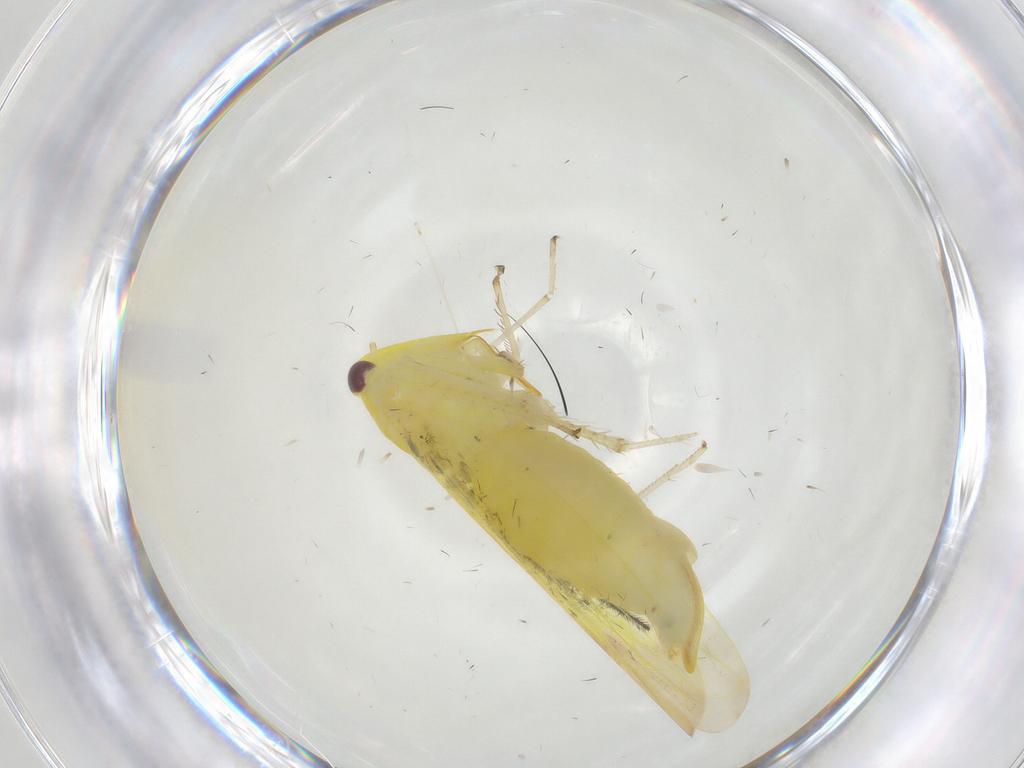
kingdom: Animalia
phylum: Arthropoda
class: Insecta
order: Hemiptera
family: Cicadellidae
